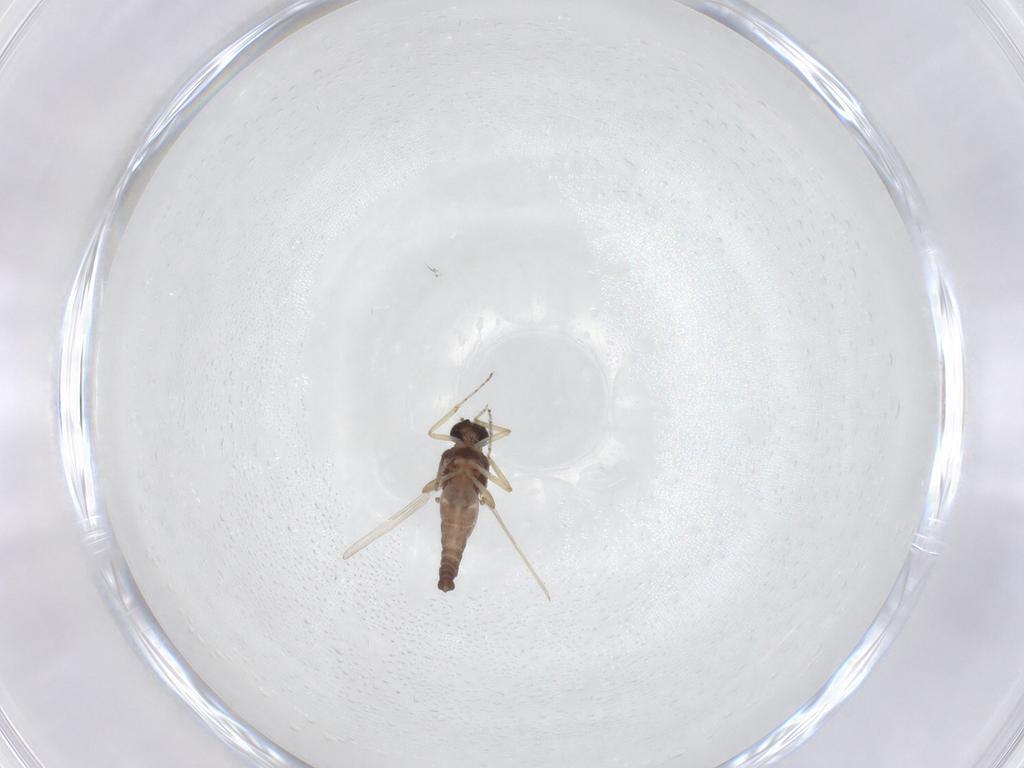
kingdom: Animalia
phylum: Arthropoda
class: Insecta
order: Diptera
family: Ceratopogonidae
